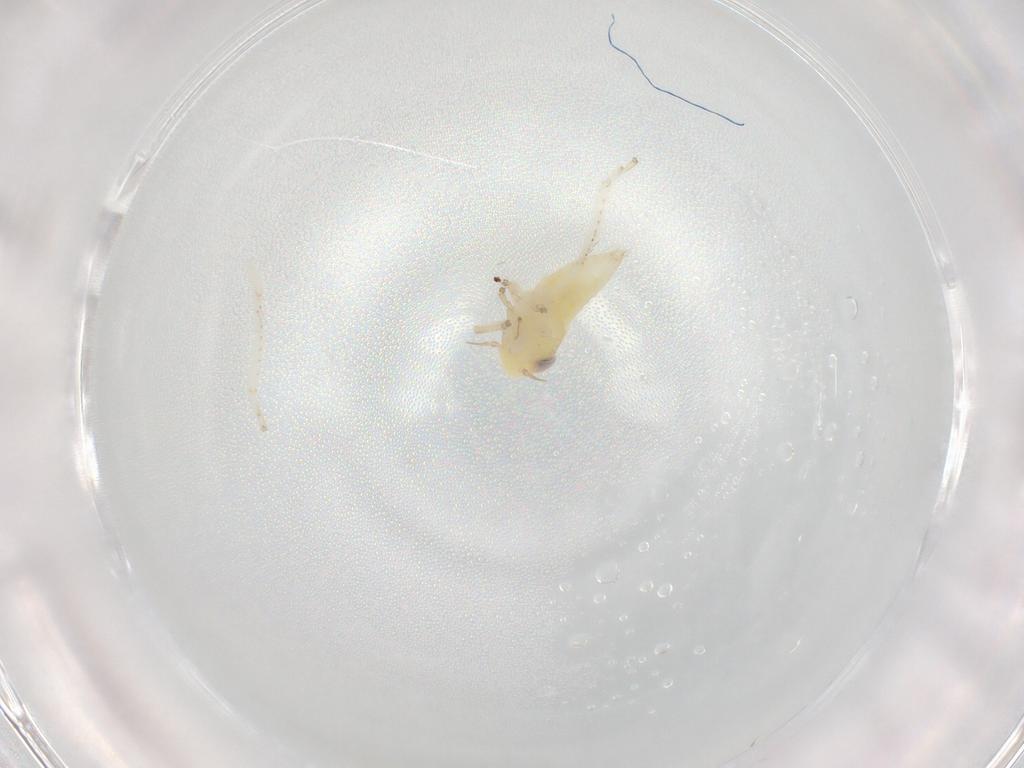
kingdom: Animalia
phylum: Arthropoda
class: Insecta
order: Hemiptera
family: Cicadellidae
